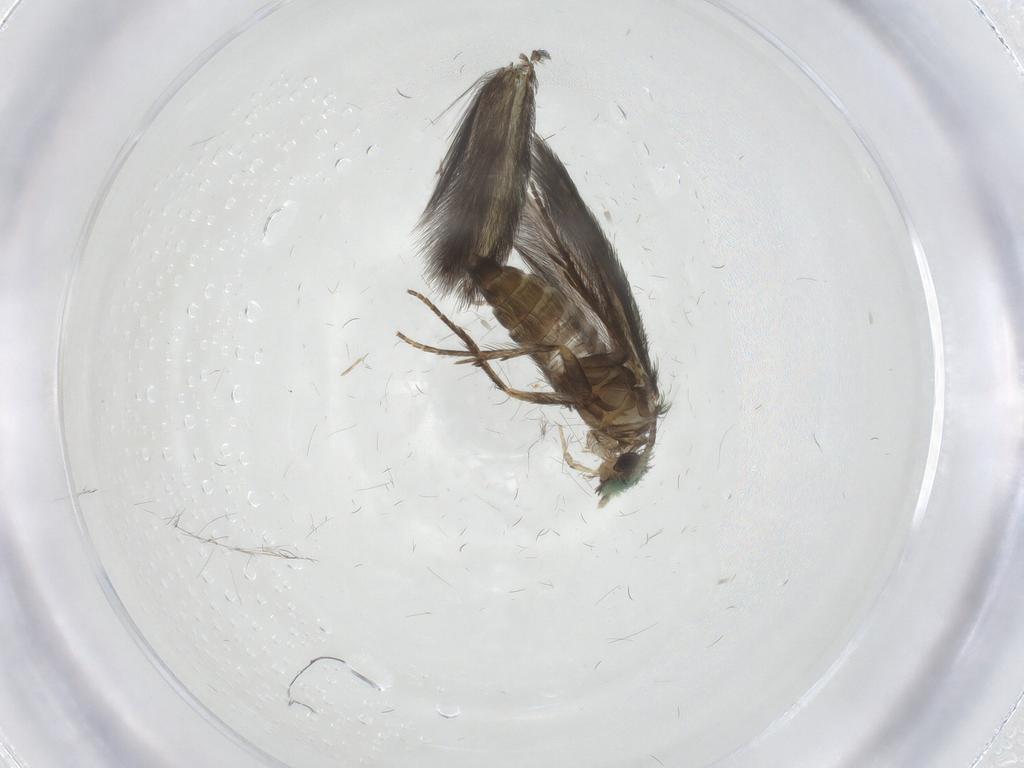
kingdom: Animalia
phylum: Arthropoda
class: Insecta
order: Trichoptera
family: Hydroptilidae
